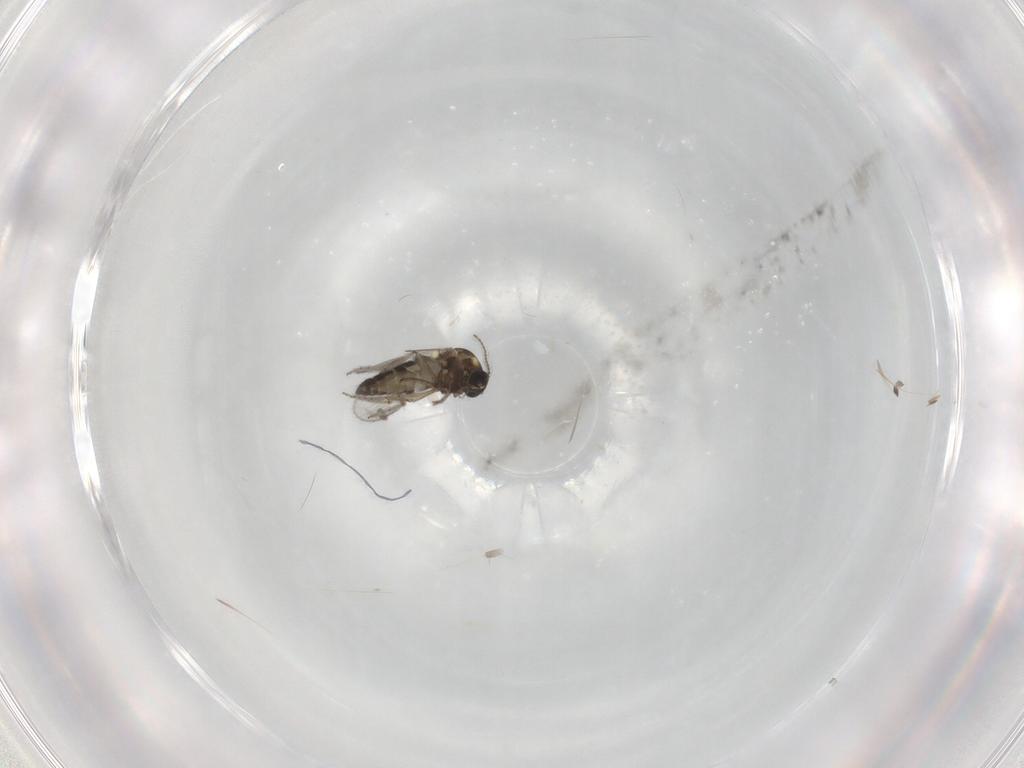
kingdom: Animalia
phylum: Arthropoda
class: Insecta
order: Diptera
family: Ceratopogonidae
